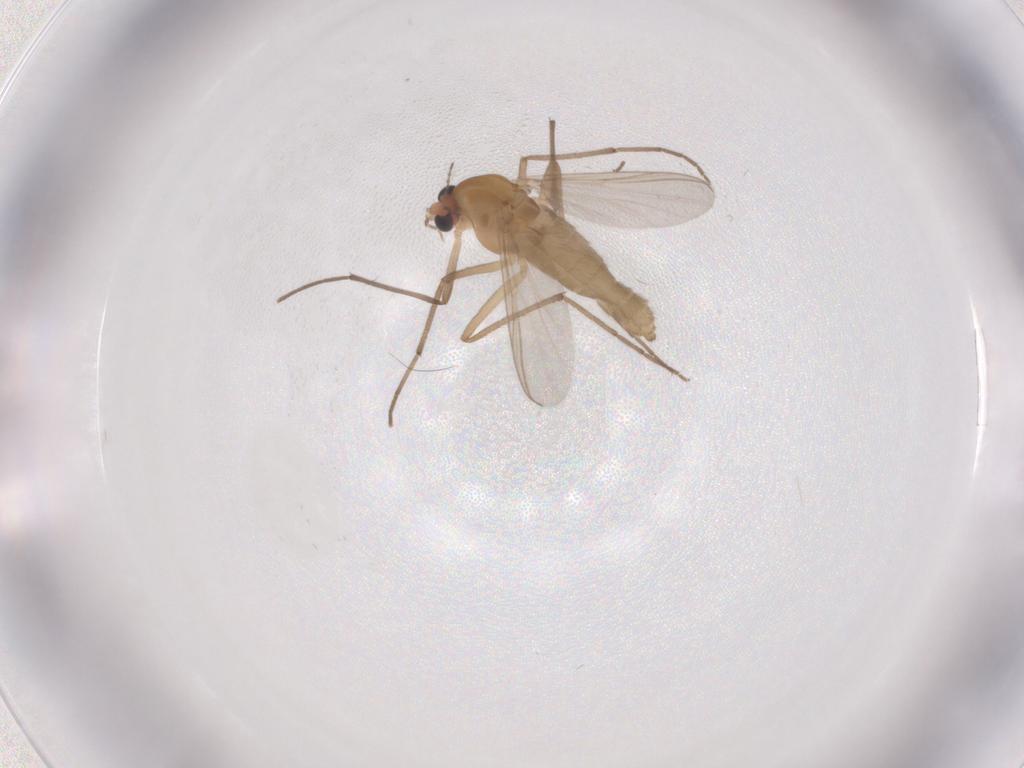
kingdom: Animalia
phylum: Arthropoda
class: Insecta
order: Diptera
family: Chironomidae
